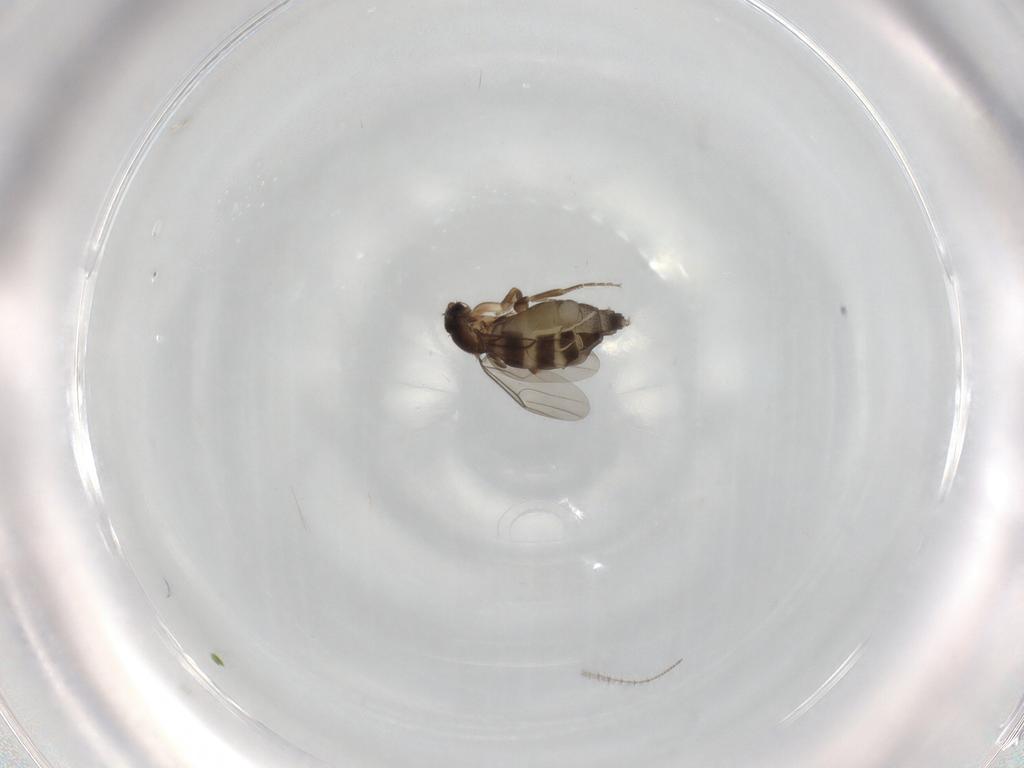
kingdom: Animalia
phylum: Arthropoda
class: Insecta
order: Diptera
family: Phoridae
